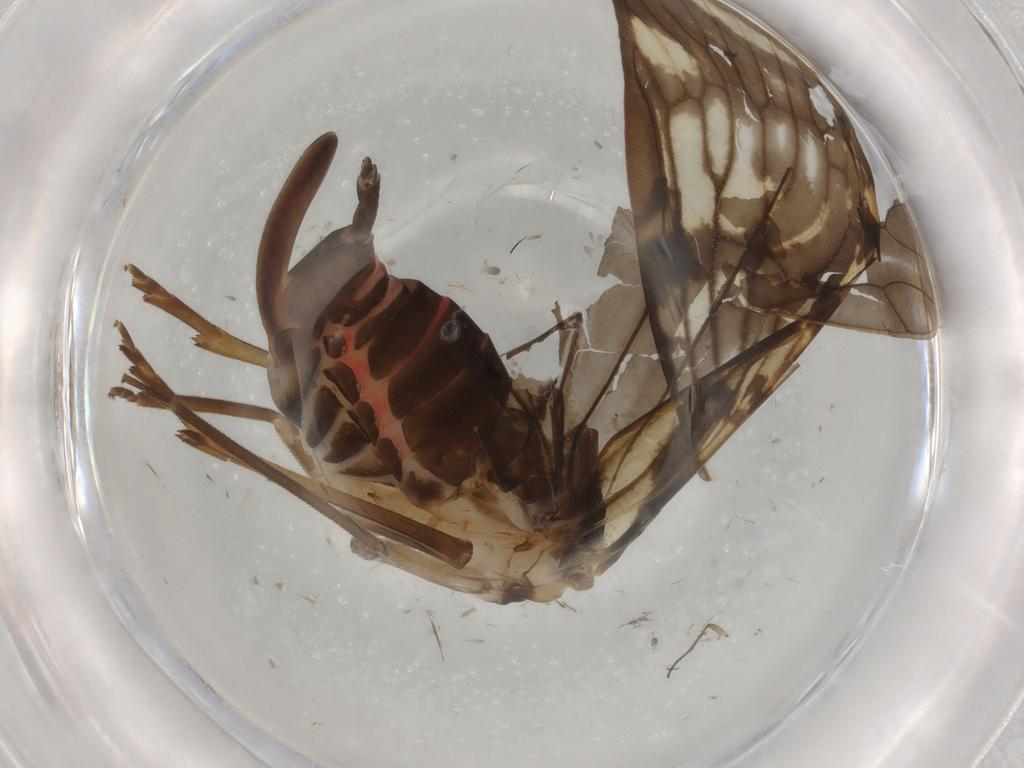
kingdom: Animalia
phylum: Arthropoda
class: Insecta
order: Hemiptera
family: Cixiidae
